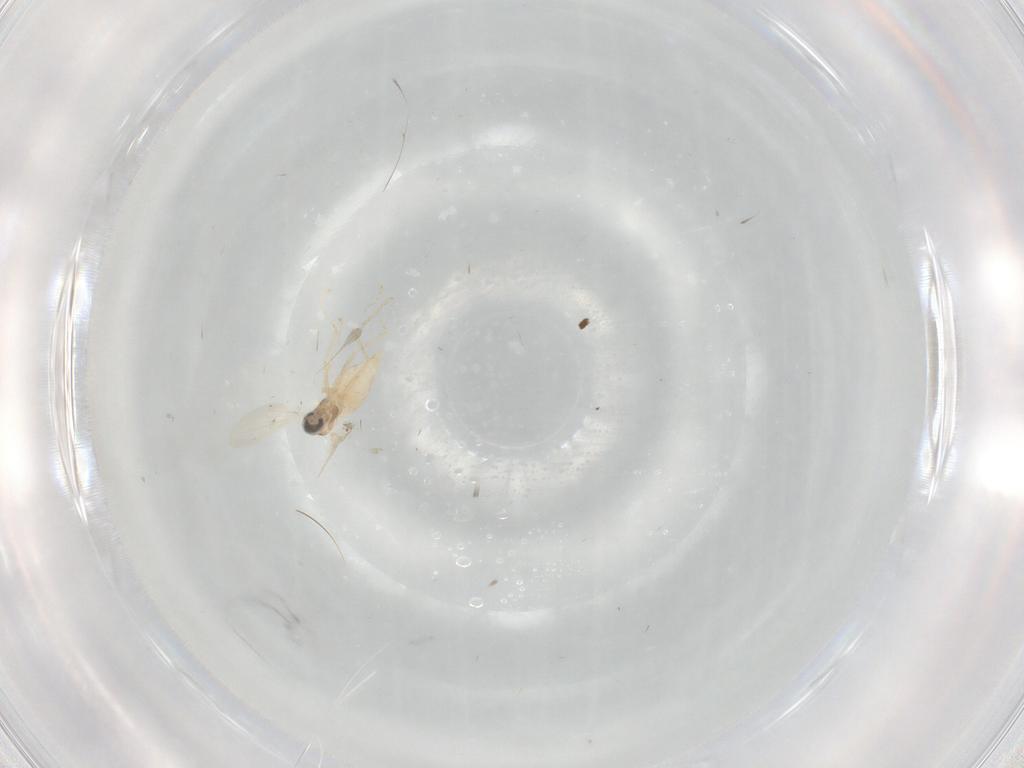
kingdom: Animalia
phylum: Arthropoda
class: Insecta
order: Diptera
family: Cecidomyiidae
